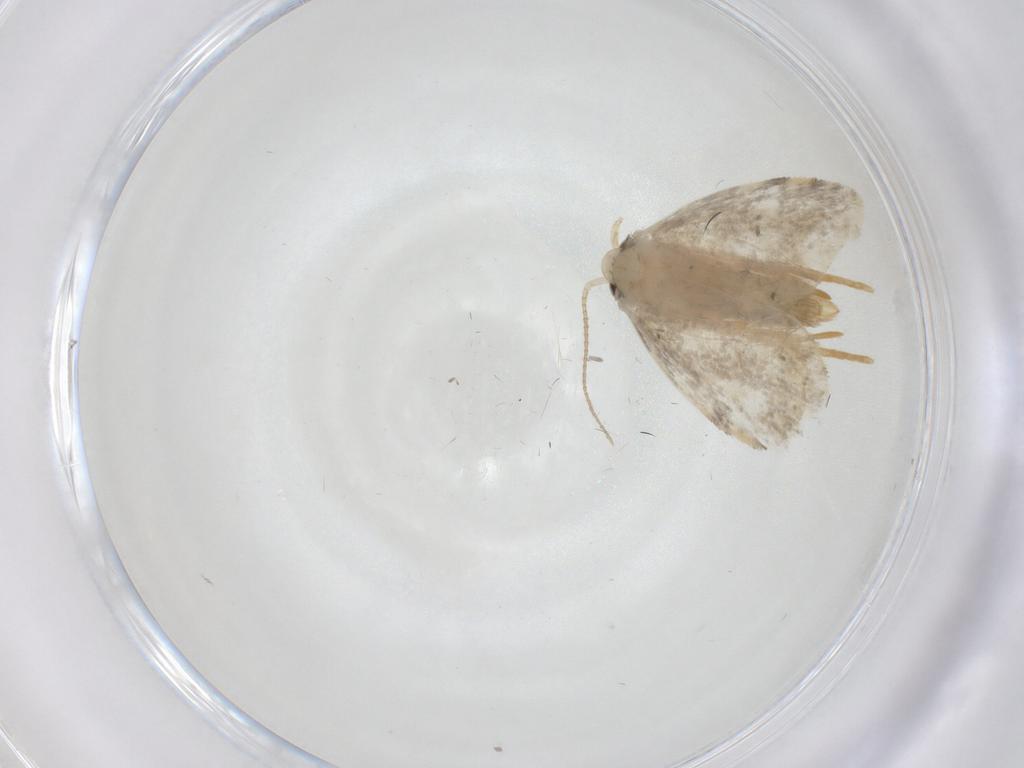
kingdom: Animalia
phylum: Arthropoda
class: Insecta
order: Lepidoptera
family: Psychidae
